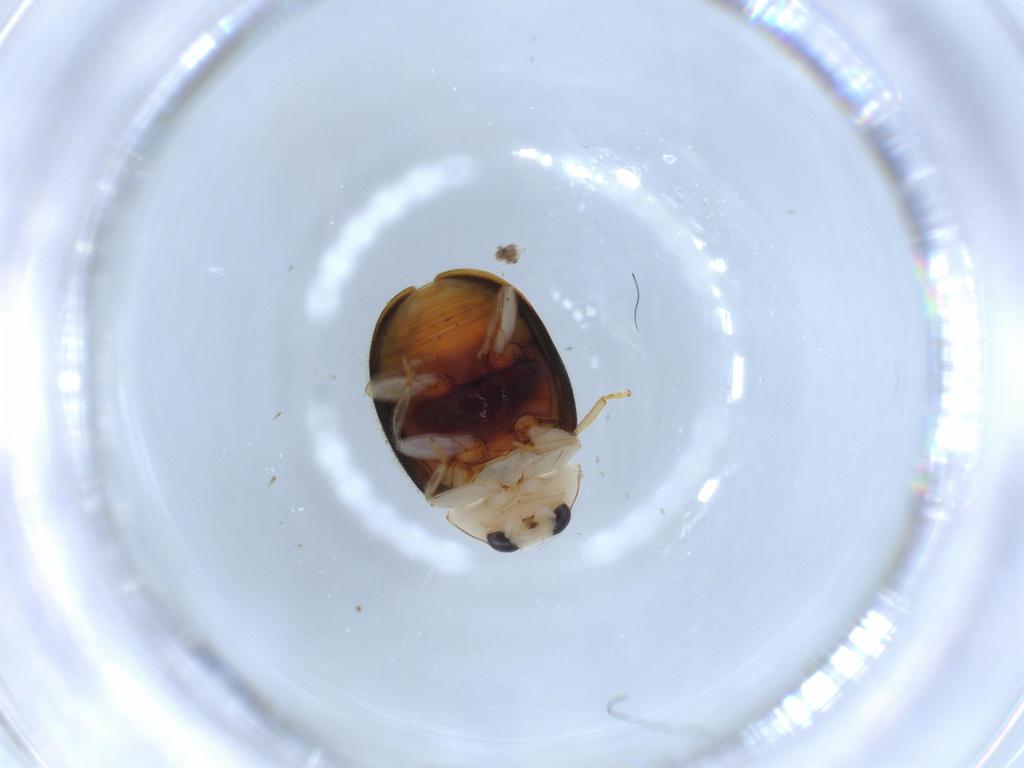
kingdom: Animalia
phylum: Arthropoda
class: Insecta
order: Coleoptera
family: Coccinellidae
